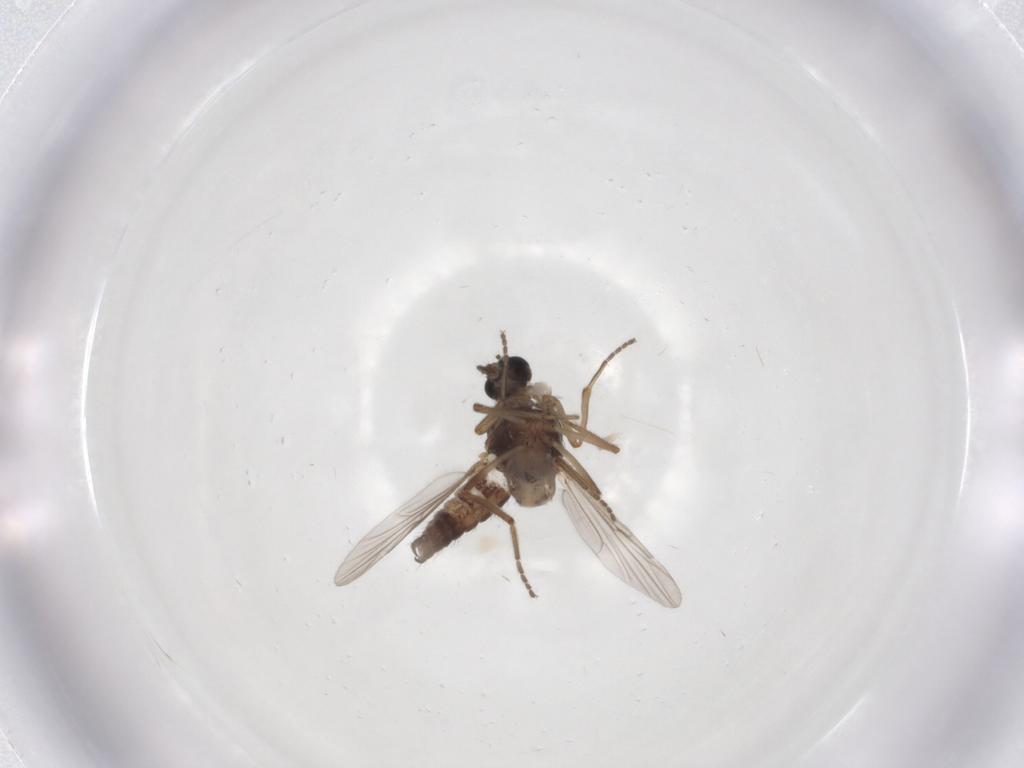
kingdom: Animalia
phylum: Arthropoda
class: Insecta
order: Diptera
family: Ceratopogonidae
